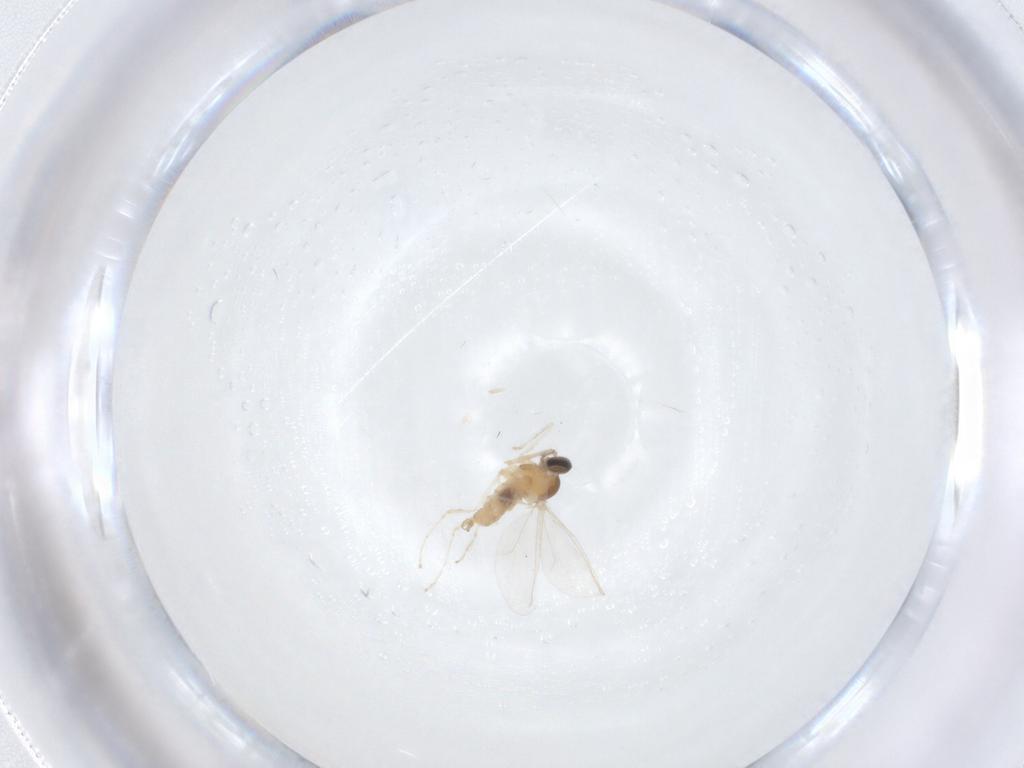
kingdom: Animalia
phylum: Arthropoda
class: Insecta
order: Diptera
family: Cecidomyiidae
